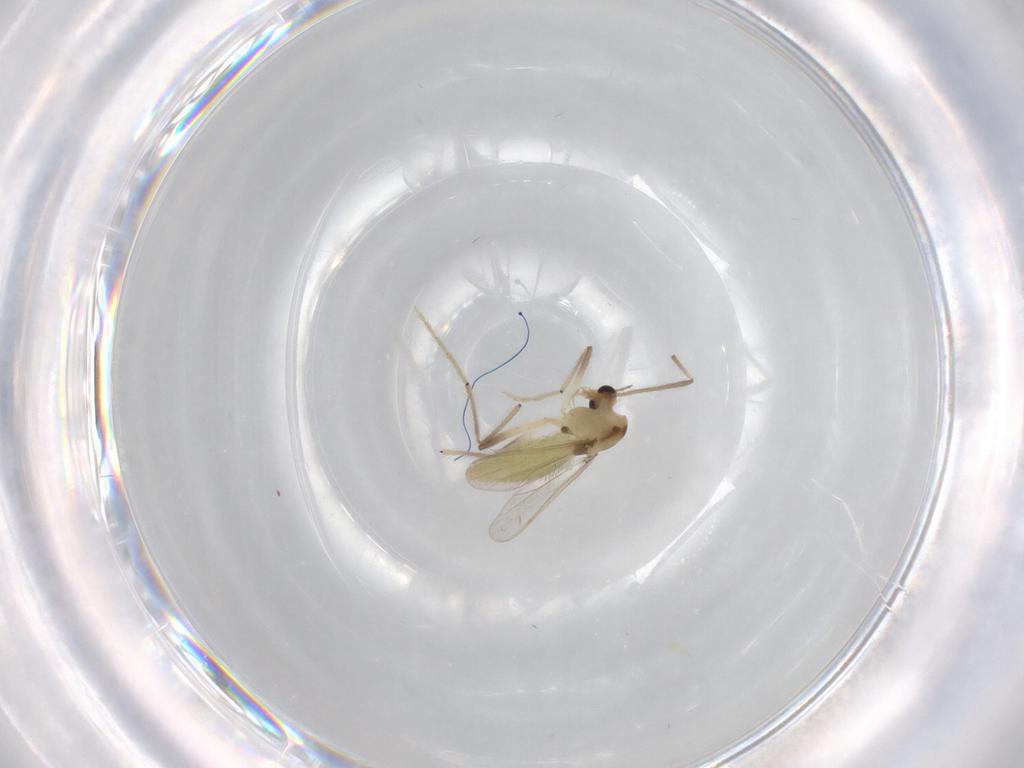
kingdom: Animalia
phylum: Arthropoda
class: Insecta
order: Diptera
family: Chironomidae
